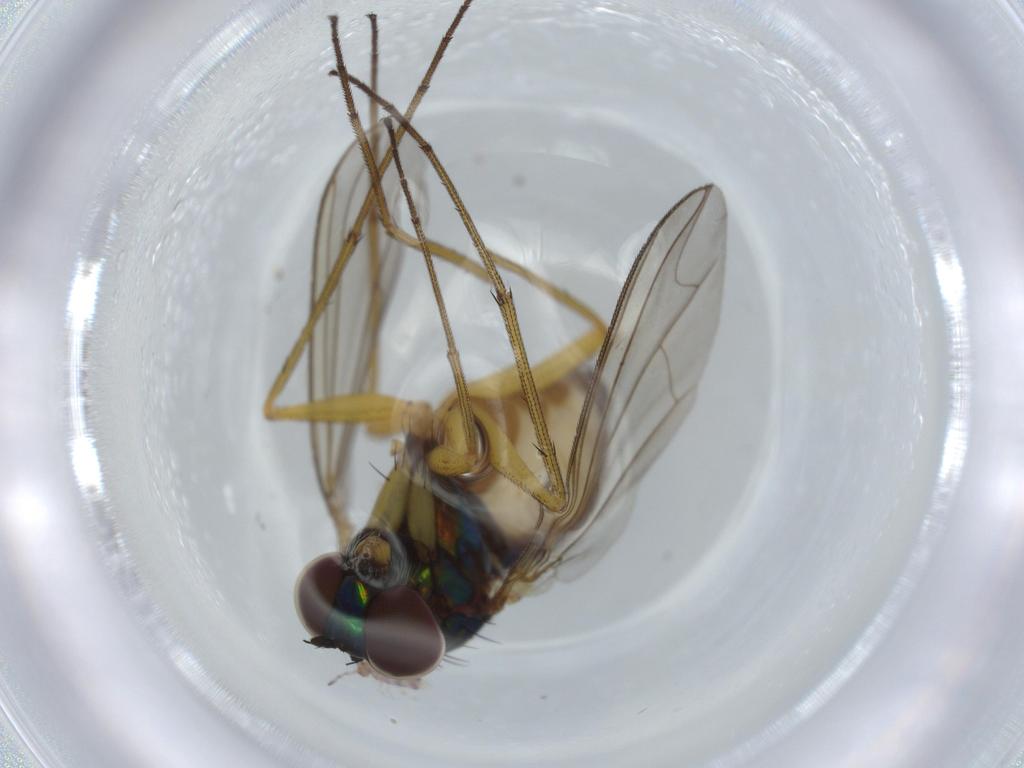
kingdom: Animalia
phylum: Arthropoda
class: Insecta
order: Diptera
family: Dolichopodidae
